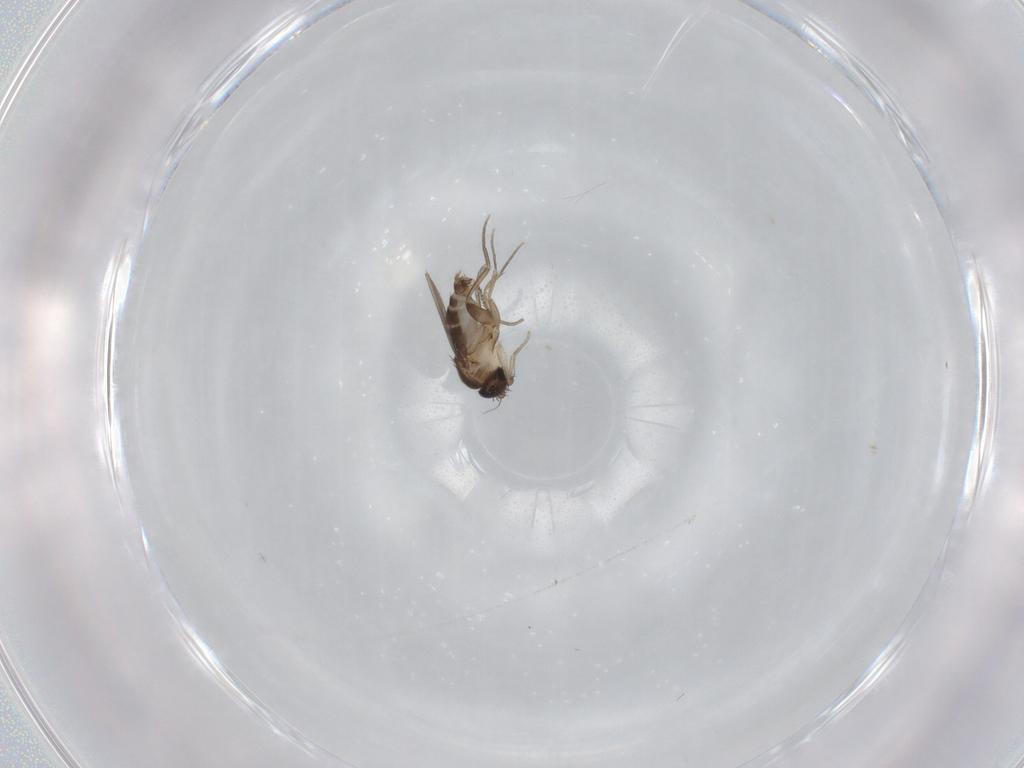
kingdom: Animalia
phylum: Arthropoda
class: Insecta
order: Diptera
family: Phoridae
